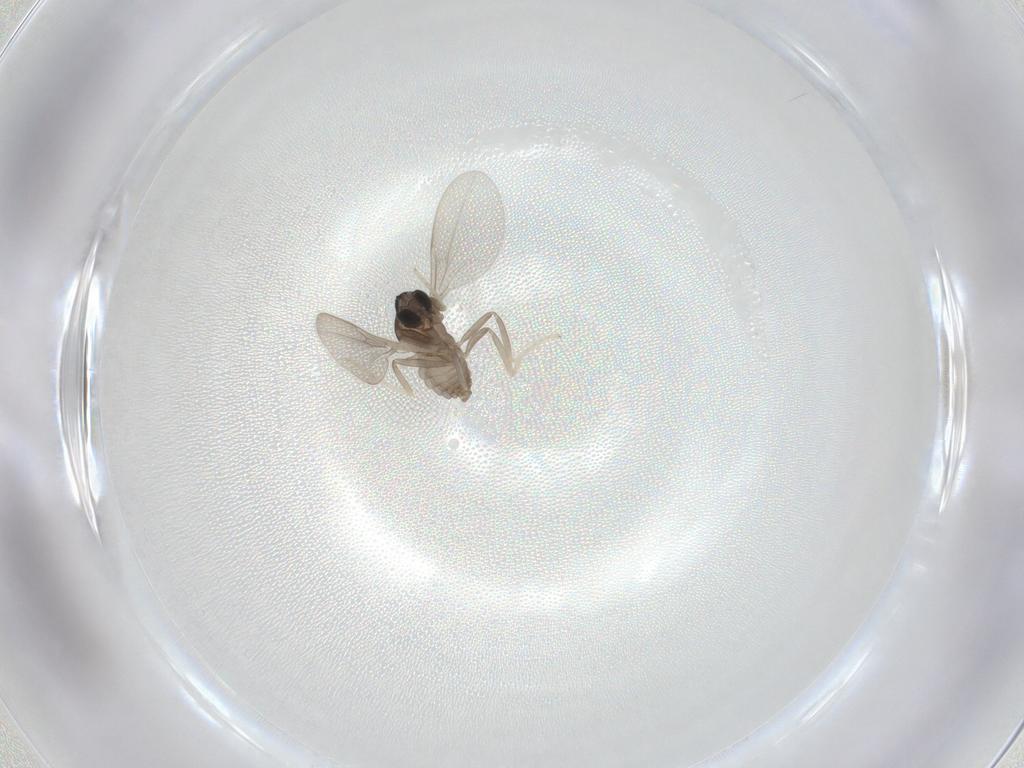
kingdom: Animalia
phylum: Arthropoda
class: Insecta
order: Diptera
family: Cecidomyiidae
